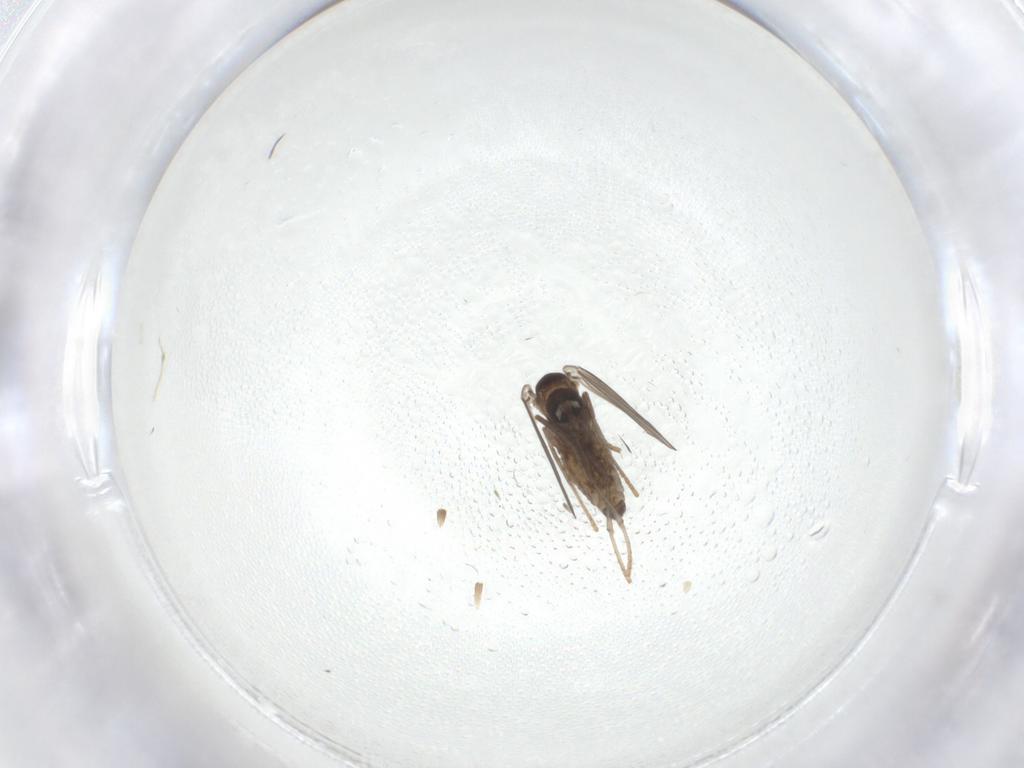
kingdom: Animalia
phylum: Arthropoda
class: Insecta
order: Diptera
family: Psychodidae
